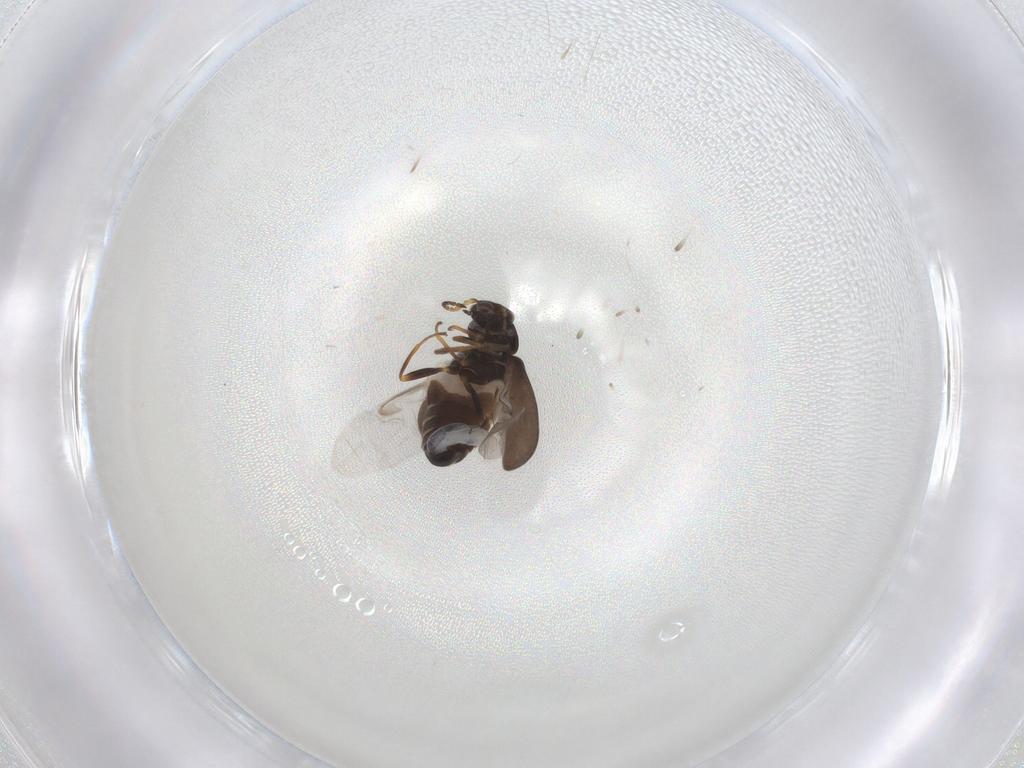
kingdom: Animalia
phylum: Arthropoda
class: Insecta
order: Coleoptera
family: Melyridae
